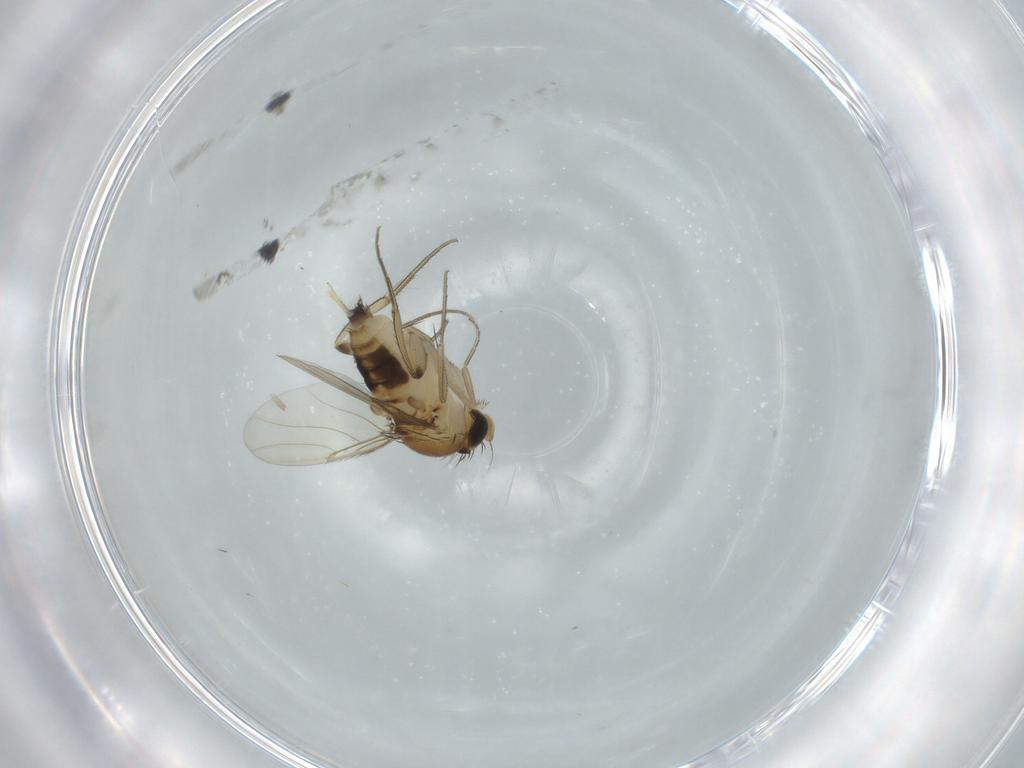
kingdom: Animalia
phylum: Arthropoda
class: Insecta
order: Diptera
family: Phoridae
